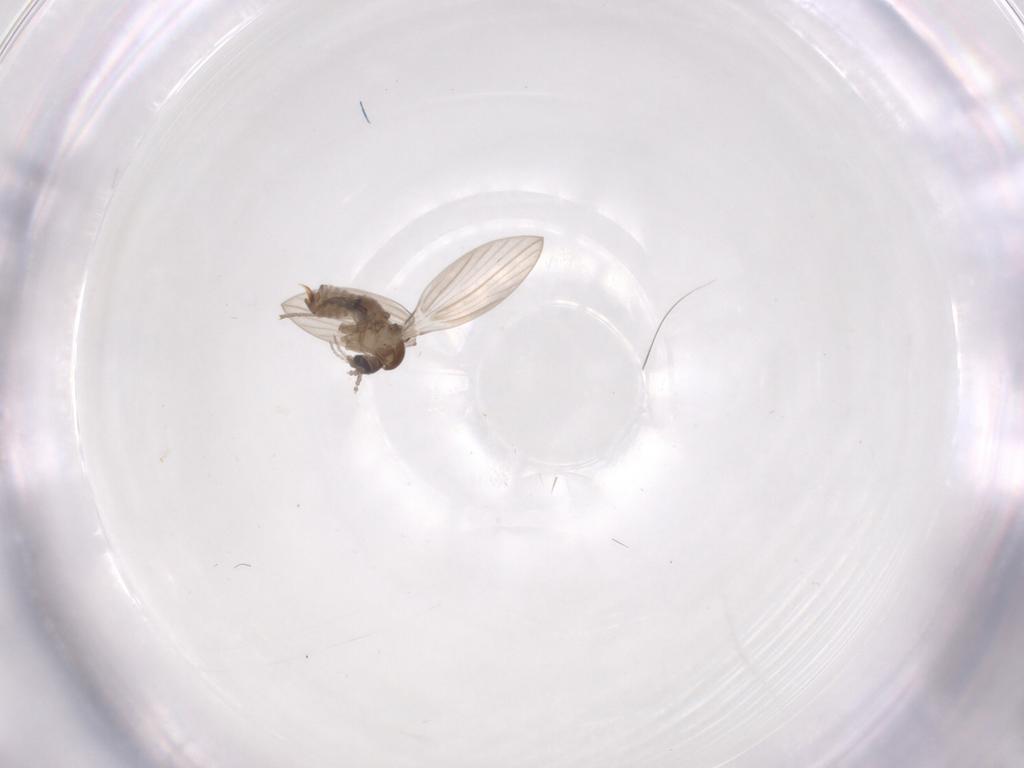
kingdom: Animalia
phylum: Arthropoda
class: Insecta
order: Diptera
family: Psychodidae
